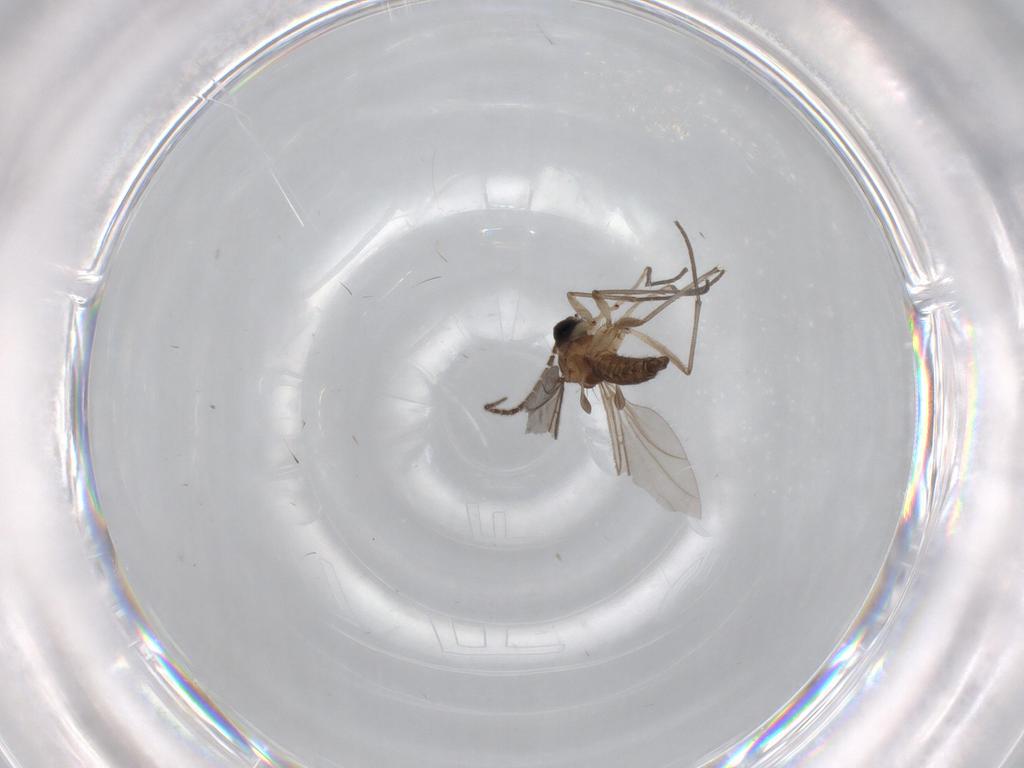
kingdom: Animalia
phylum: Arthropoda
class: Insecta
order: Diptera
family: Sciaridae
